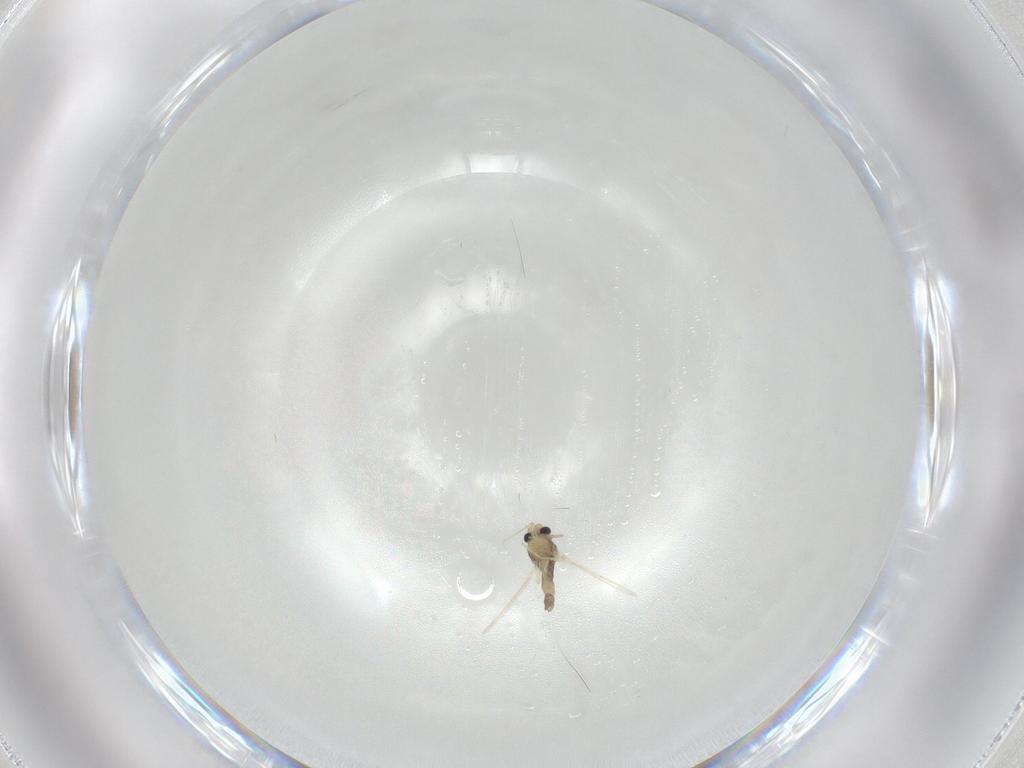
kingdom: Animalia
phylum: Arthropoda
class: Insecta
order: Diptera
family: Chironomidae
